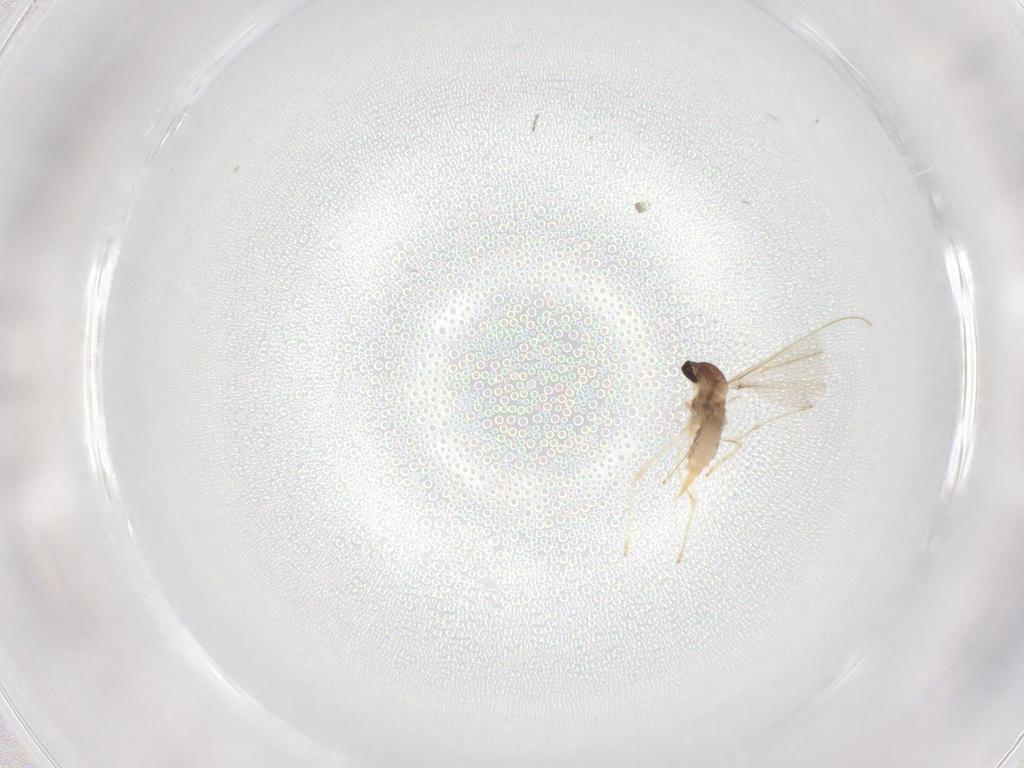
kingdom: Animalia
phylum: Arthropoda
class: Insecta
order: Diptera
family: Cecidomyiidae
